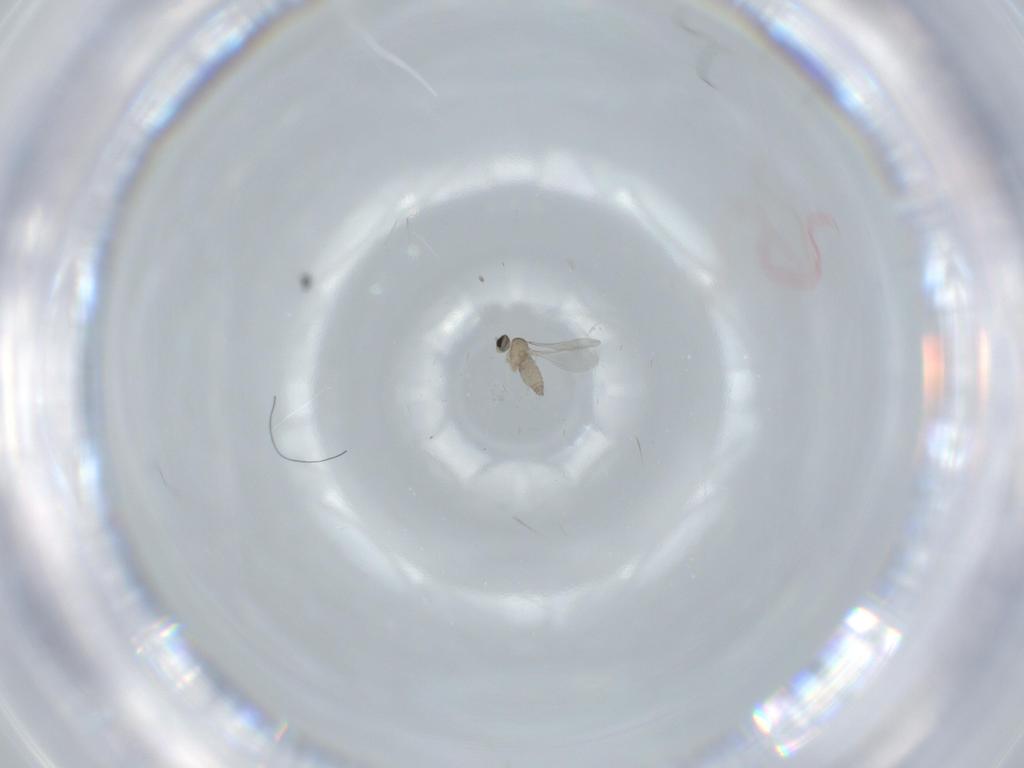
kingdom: Animalia
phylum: Arthropoda
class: Insecta
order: Diptera
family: Cecidomyiidae
